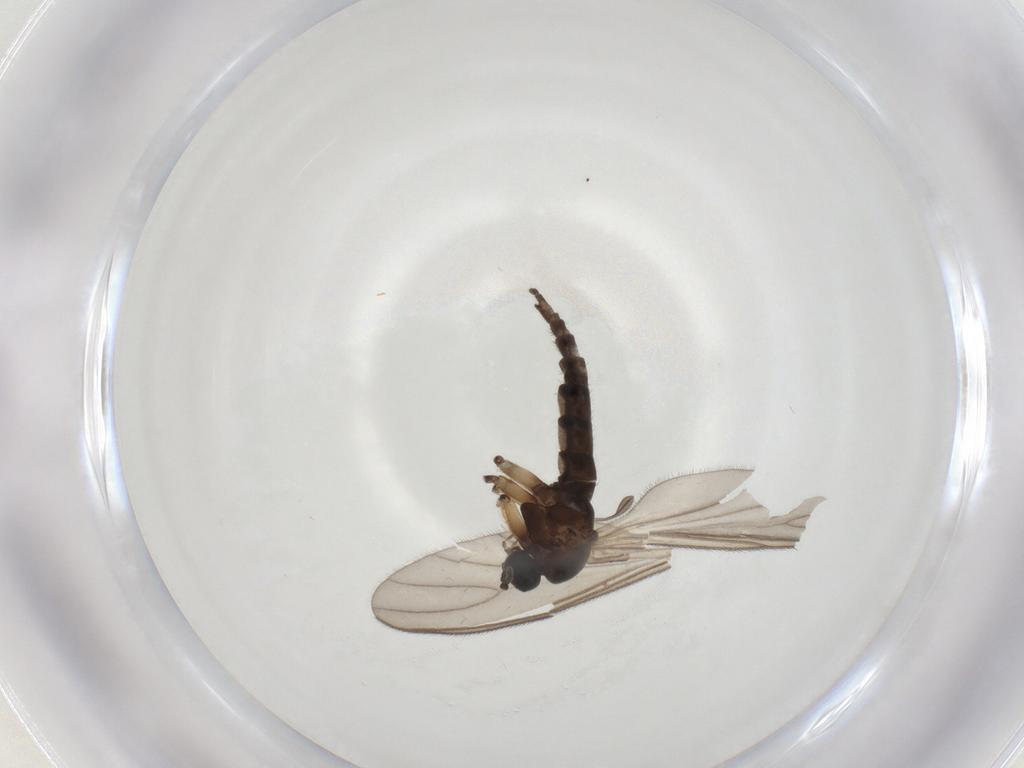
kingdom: Animalia
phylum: Arthropoda
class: Insecta
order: Diptera
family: Sciaridae
